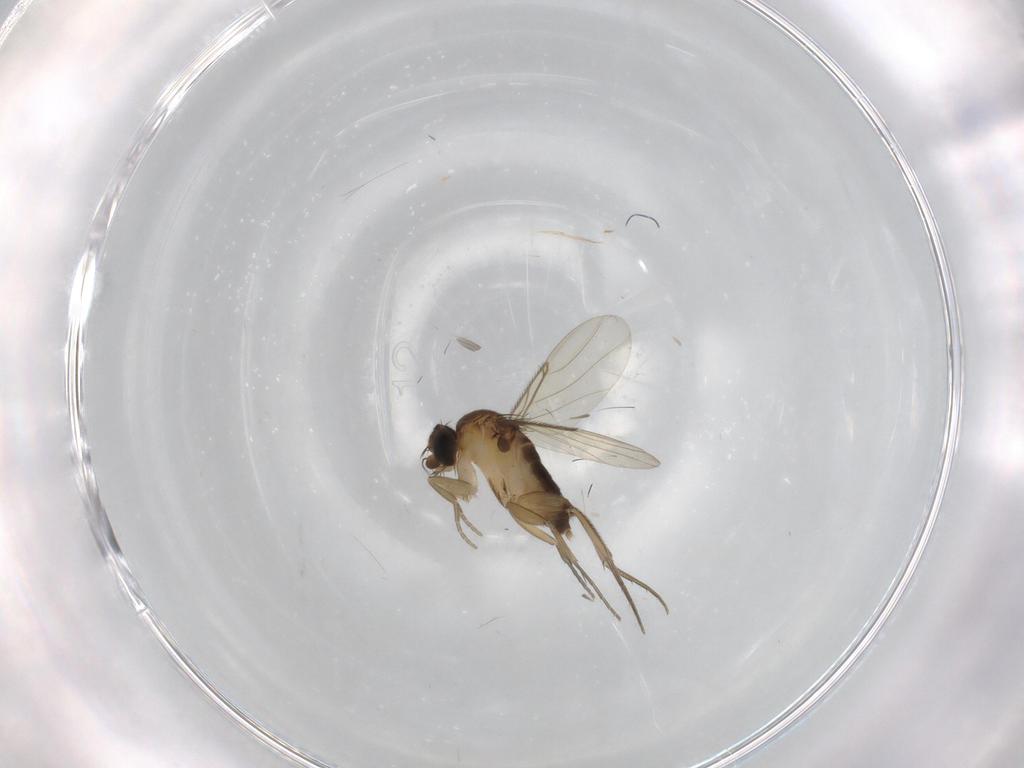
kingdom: Animalia
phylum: Arthropoda
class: Insecta
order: Diptera
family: Phoridae
